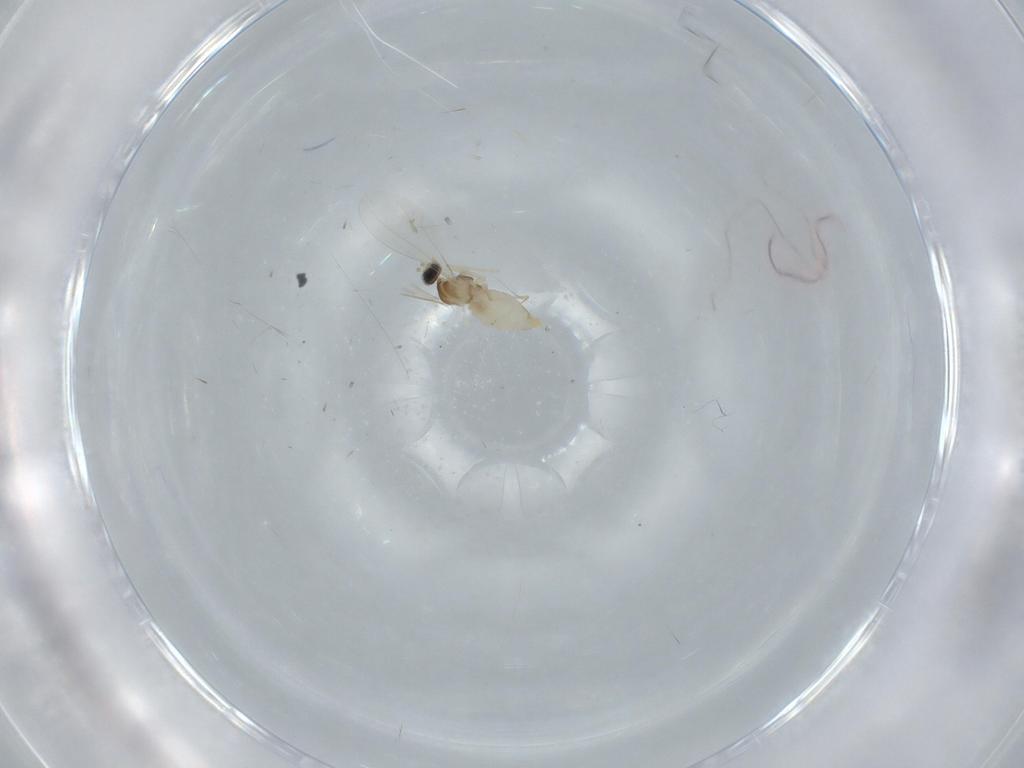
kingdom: Animalia
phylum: Arthropoda
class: Insecta
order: Diptera
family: Cecidomyiidae
